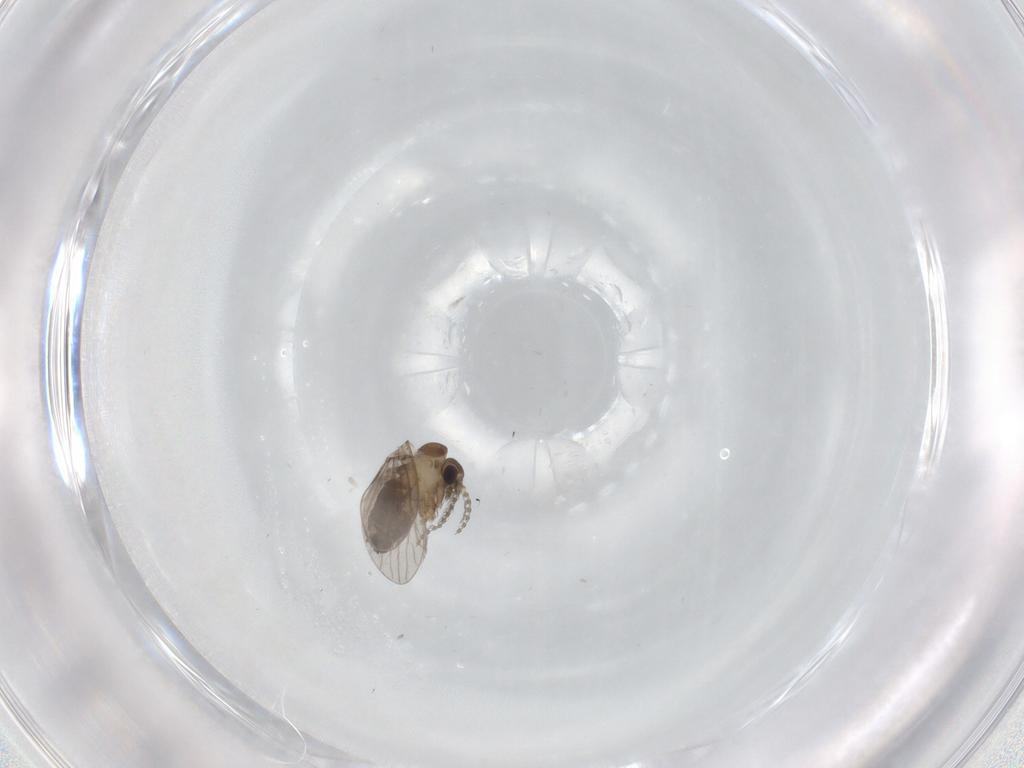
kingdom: Animalia
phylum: Arthropoda
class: Insecta
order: Diptera
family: Phoridae
